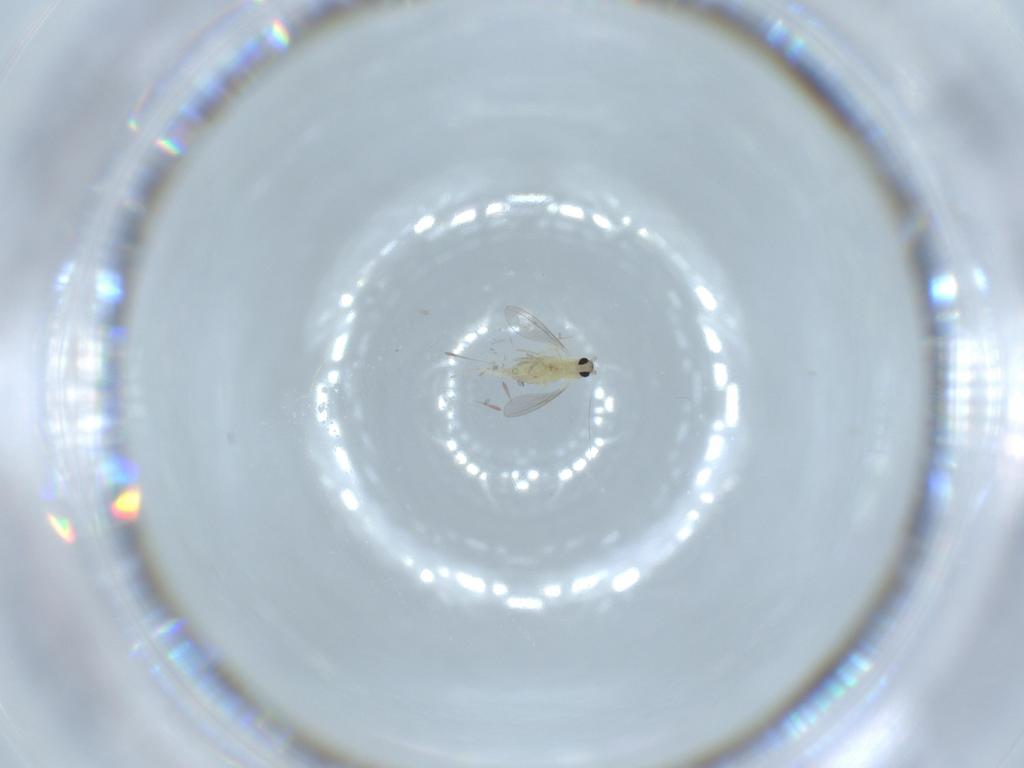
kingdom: Animalia
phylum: Arthropoda
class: Insecta
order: Diptera
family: Cecidomyiidae
